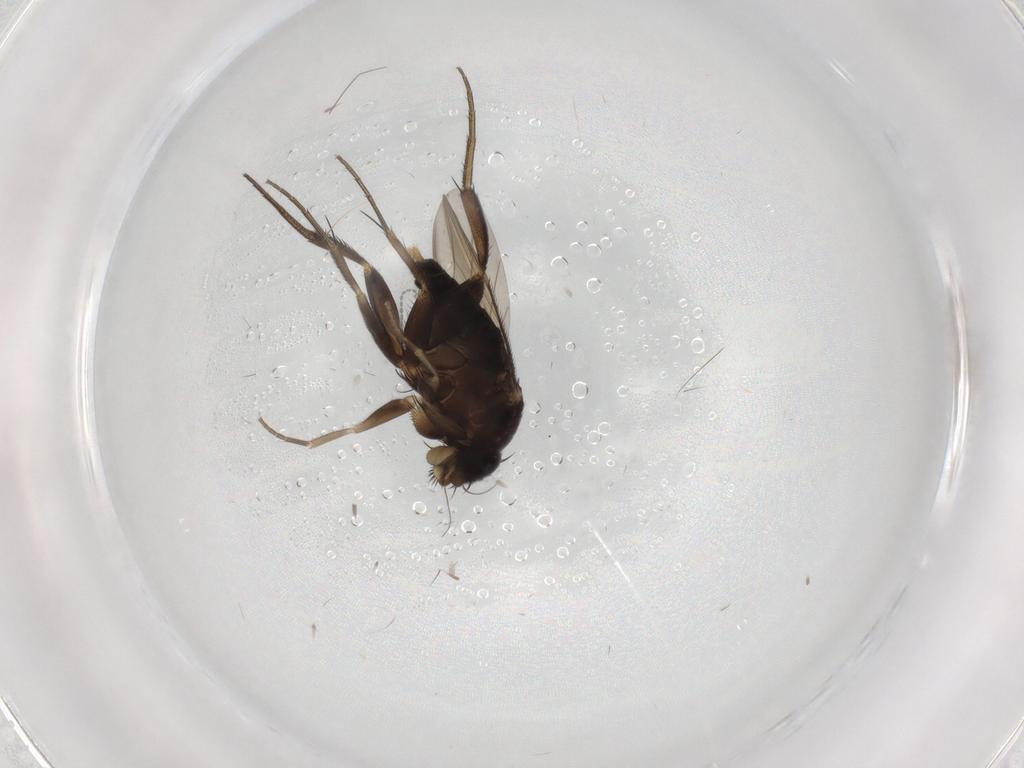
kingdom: Animalia
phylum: Arthropoda
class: Insecta
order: Diptera
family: Phoridae
